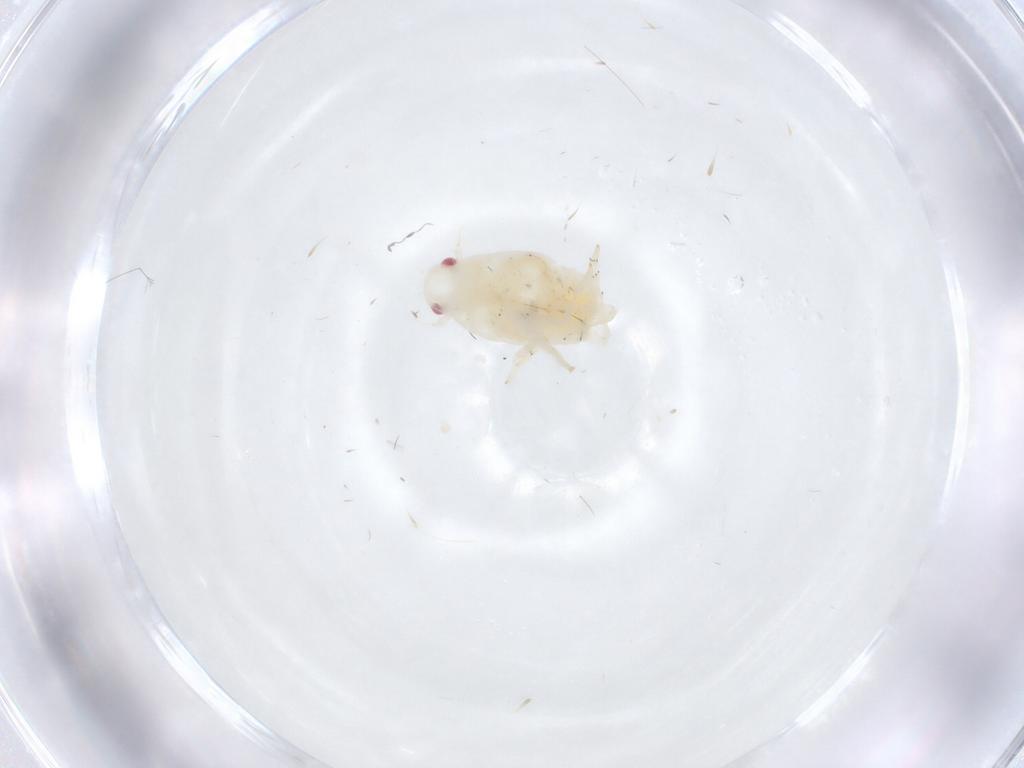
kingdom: Animalia
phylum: Arthropoda
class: Insecta
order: Hemiptera
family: Flatidae
